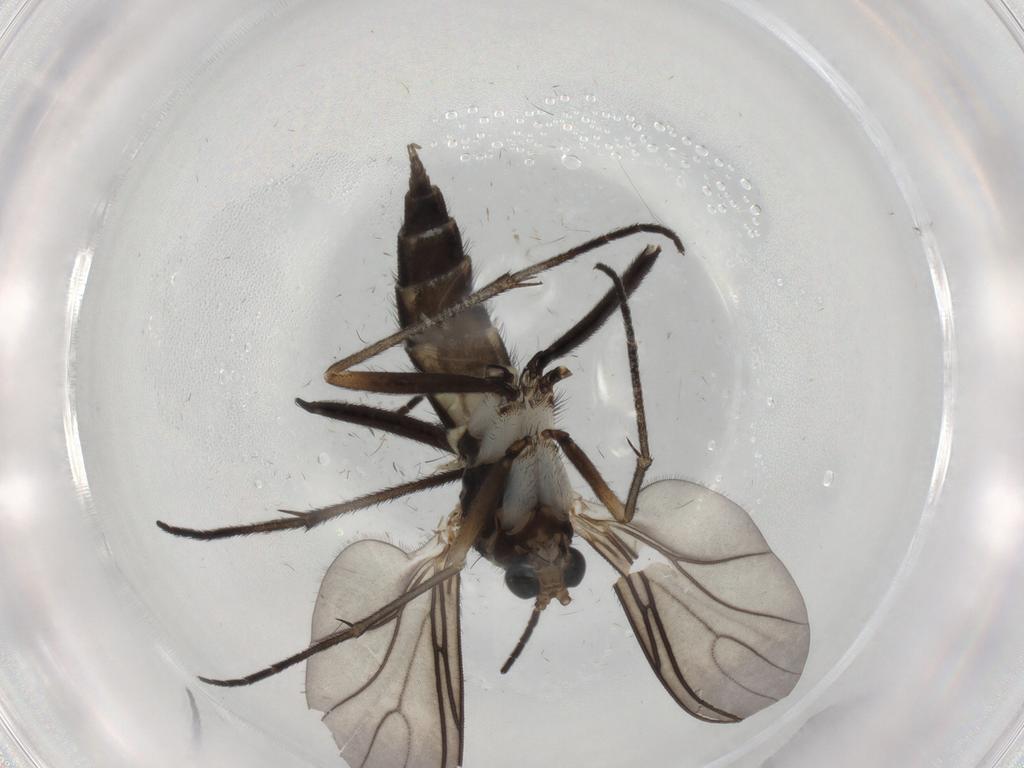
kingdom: Animalia
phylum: Arthropoda
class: Insecta
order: Diptera
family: Sciaridae
